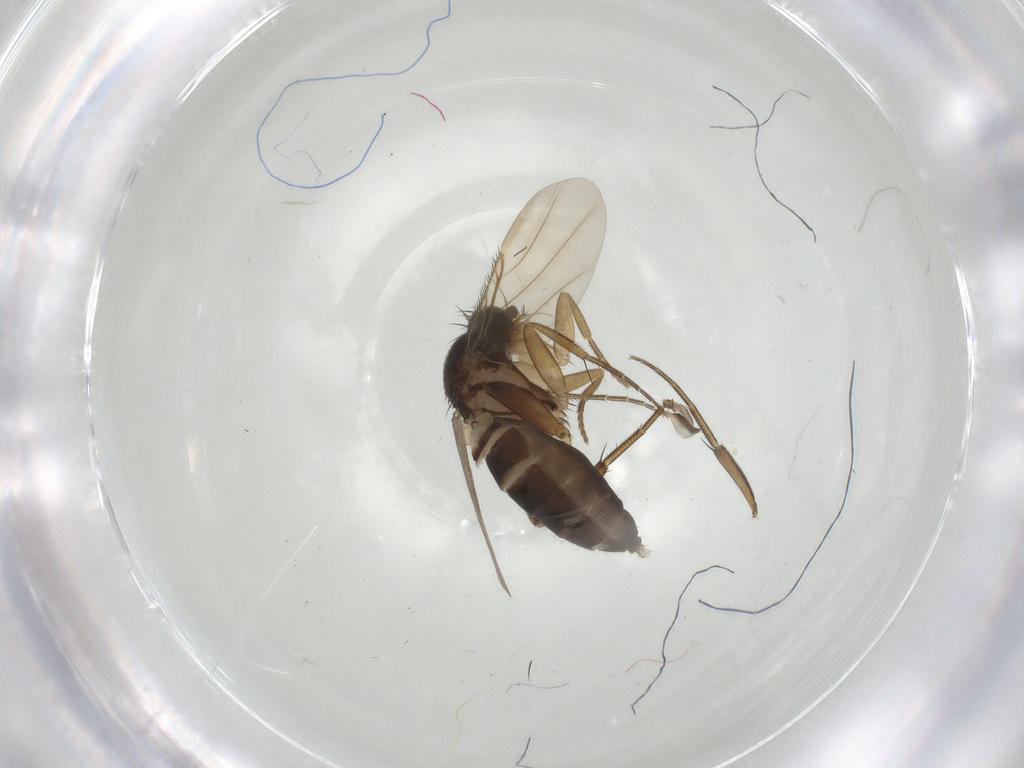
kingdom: Animalia
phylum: Arthropoda
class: Insecta
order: Diptera
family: Phoridae
